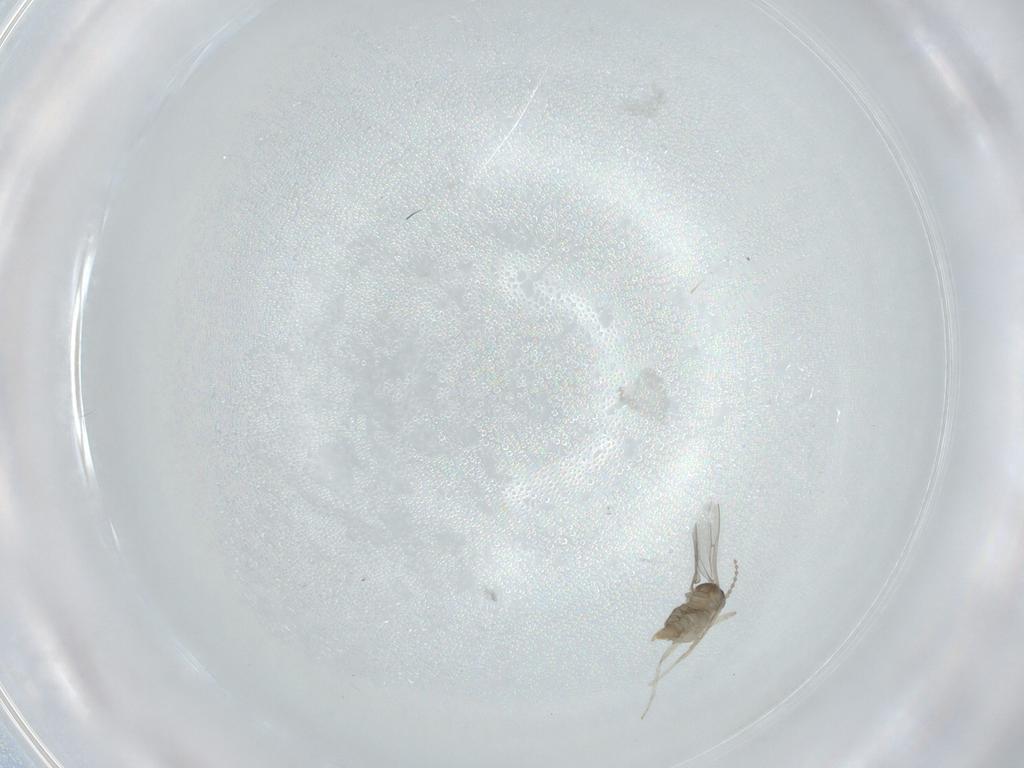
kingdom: Animalia
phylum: Arthropoda
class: Insecta
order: Diptera
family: Cecidomyiidae
